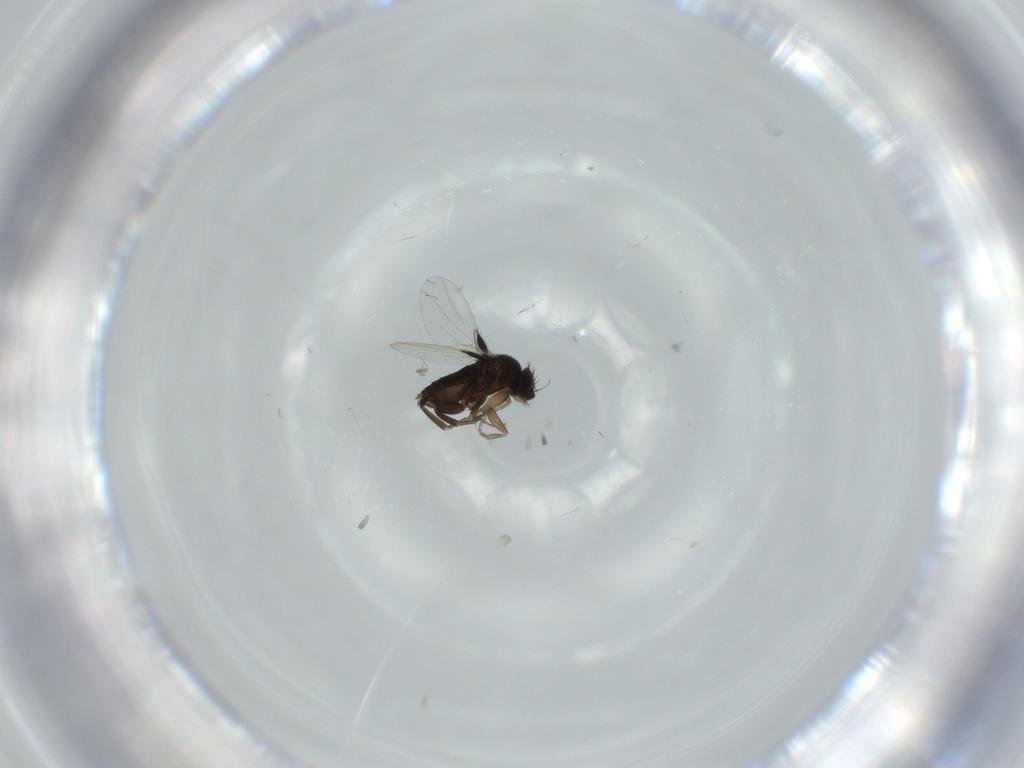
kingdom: Animalia
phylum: Arthropoda
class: Insecta
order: Diptera
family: Phoridae
